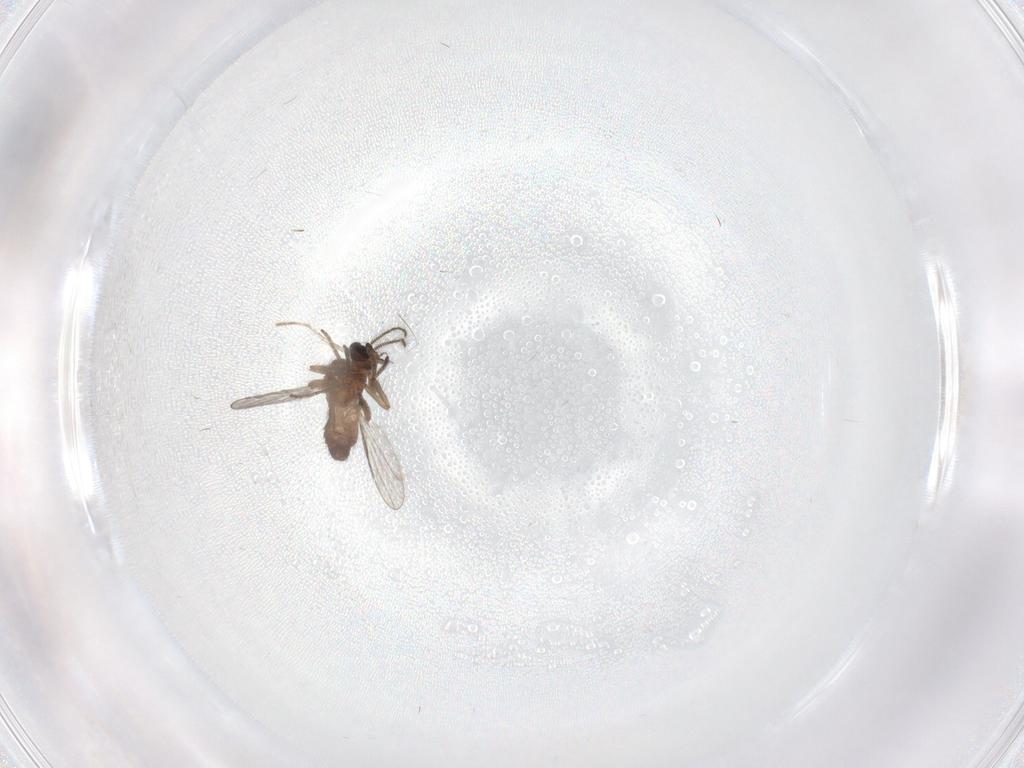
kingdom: Animalia
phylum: Arthropoda
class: Insecta
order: Diptera
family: Ceratopogonidae
